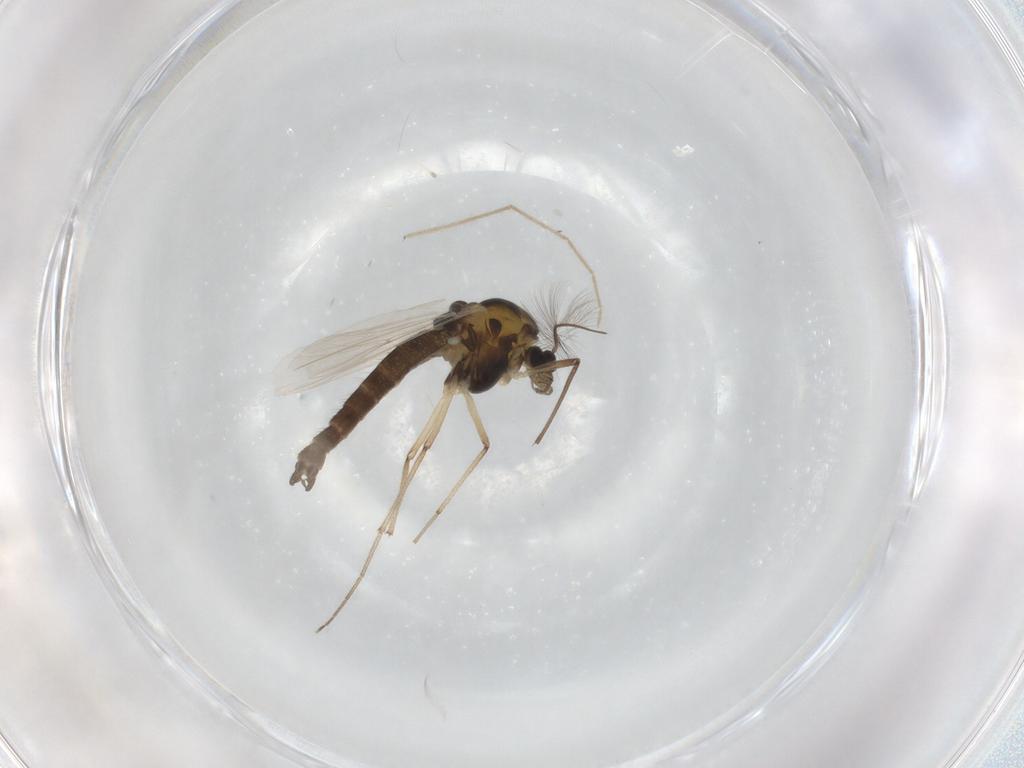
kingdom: Animalia
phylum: Arthropoda
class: Insecta
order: Diptera
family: Chironomidae
